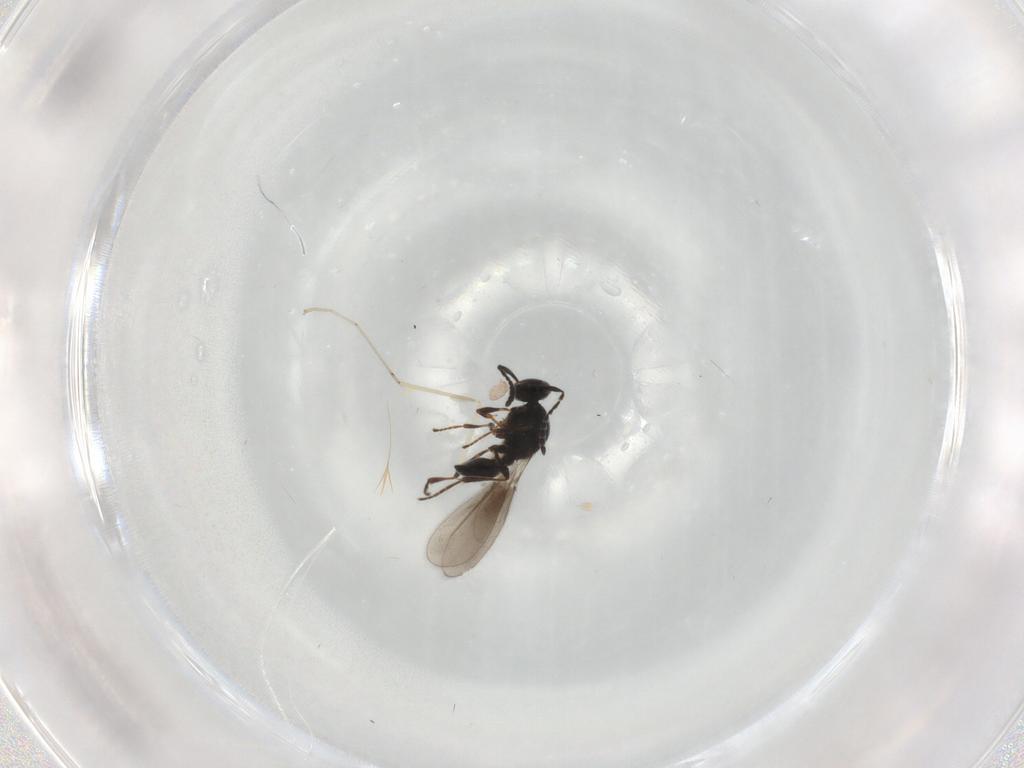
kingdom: Animalia
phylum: Arthropoda
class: Insecta
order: Hymenoptera
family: Platygastridae
